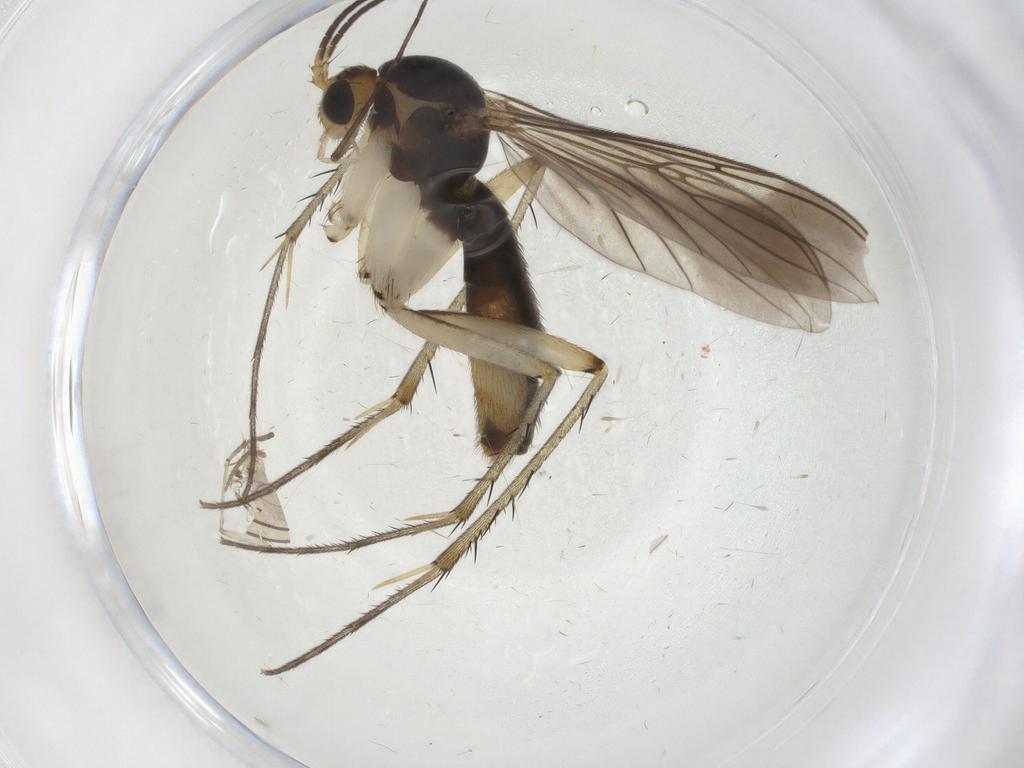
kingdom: Animalia
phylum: Arthropoda
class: Insecta
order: Diptera
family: Mycetophilidae
